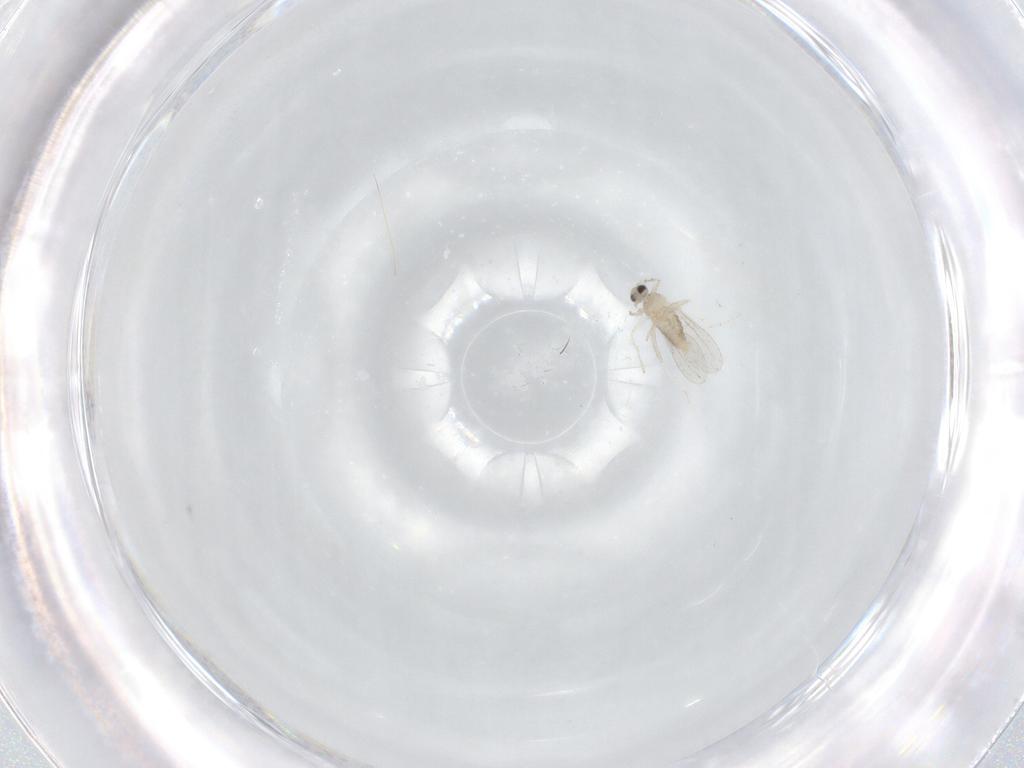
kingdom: Animalia
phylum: Arthropoda
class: Insecta
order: Diptera
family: Cecidomyiidae
